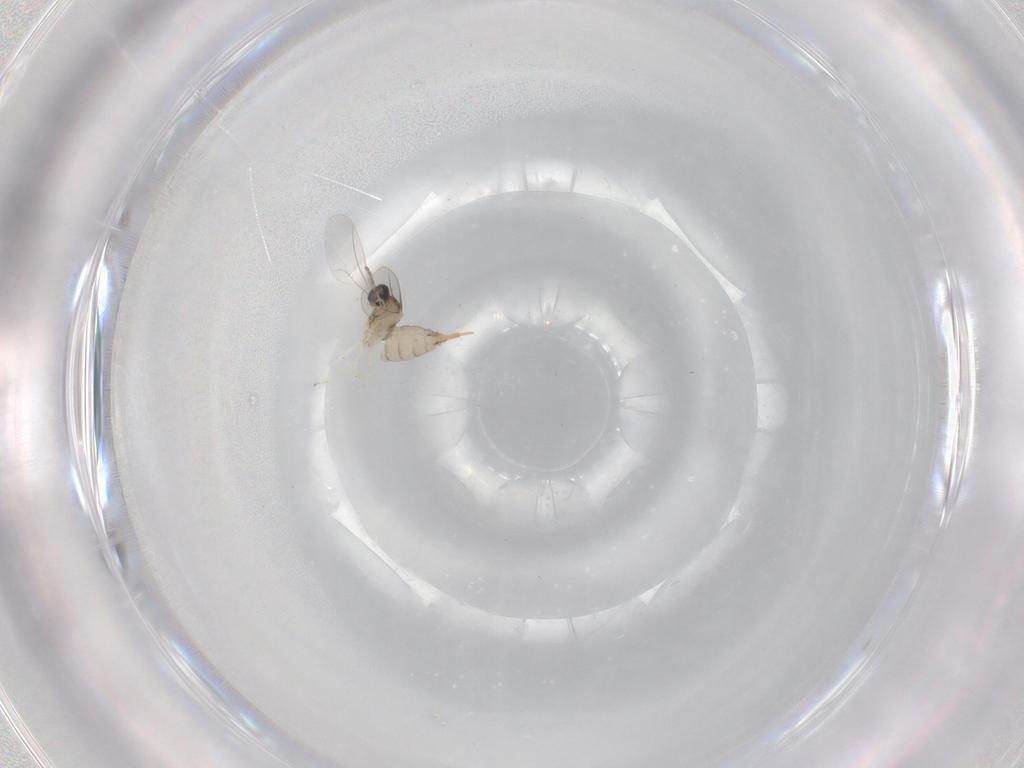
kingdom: Animalia
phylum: Arthropoda
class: Insecta
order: Diptera
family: Cecidomyiidae
